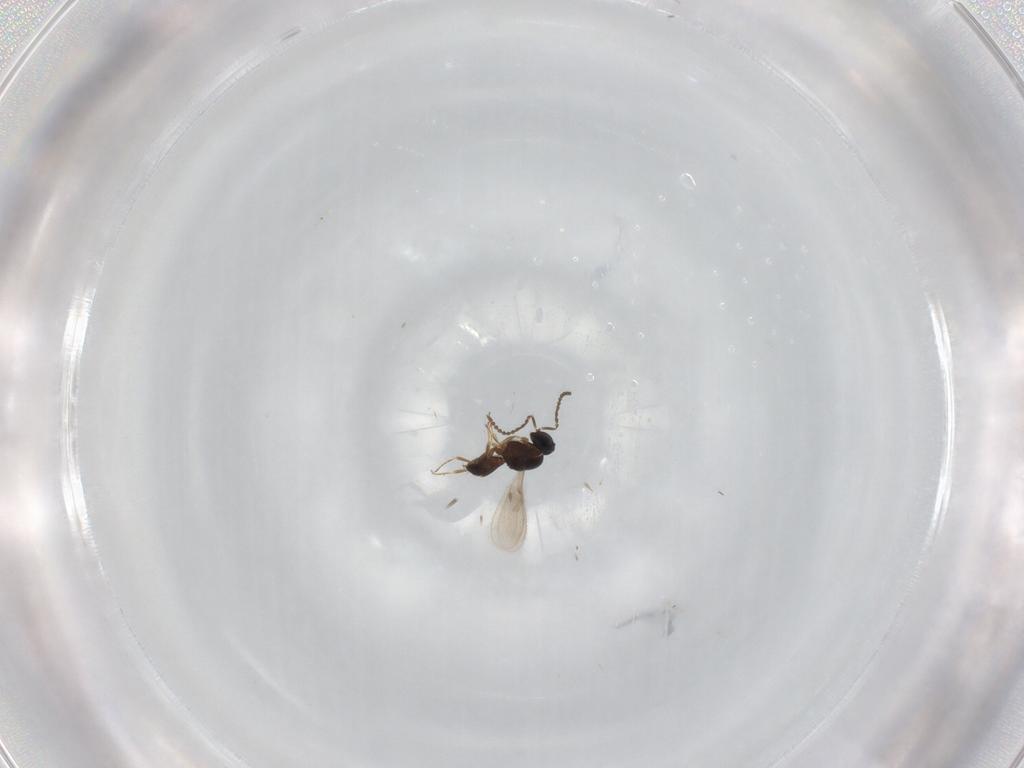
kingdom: Animalia
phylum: Arthropoda
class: Insecta
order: Hymenoptera
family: Scelionidae
